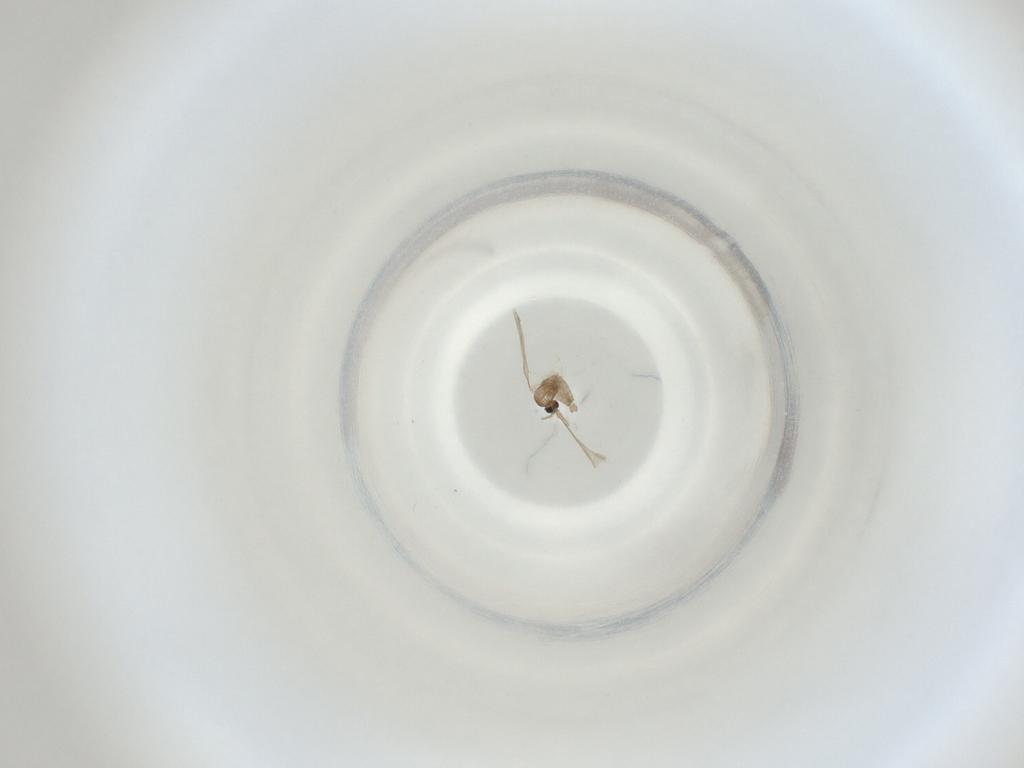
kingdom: Animalia
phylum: Arthropoda
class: Insecta
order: Diptera
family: Cecidomyiidae
